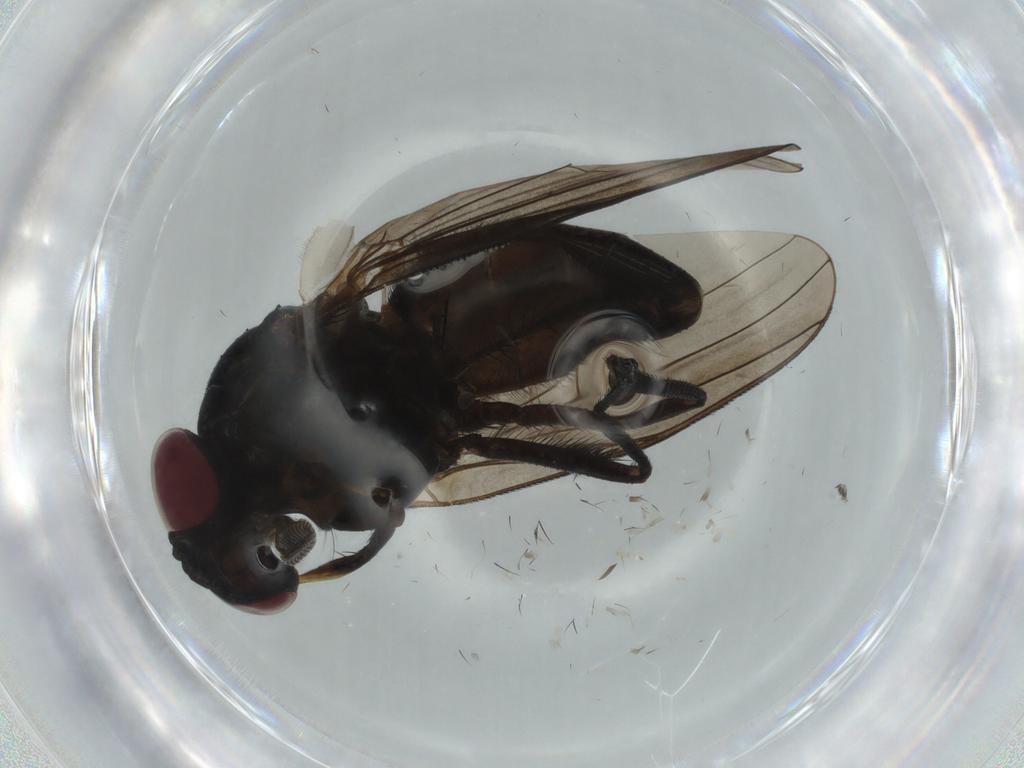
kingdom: Animalia
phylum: Arthropoda
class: Insecta
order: Diptera
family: Fannia
